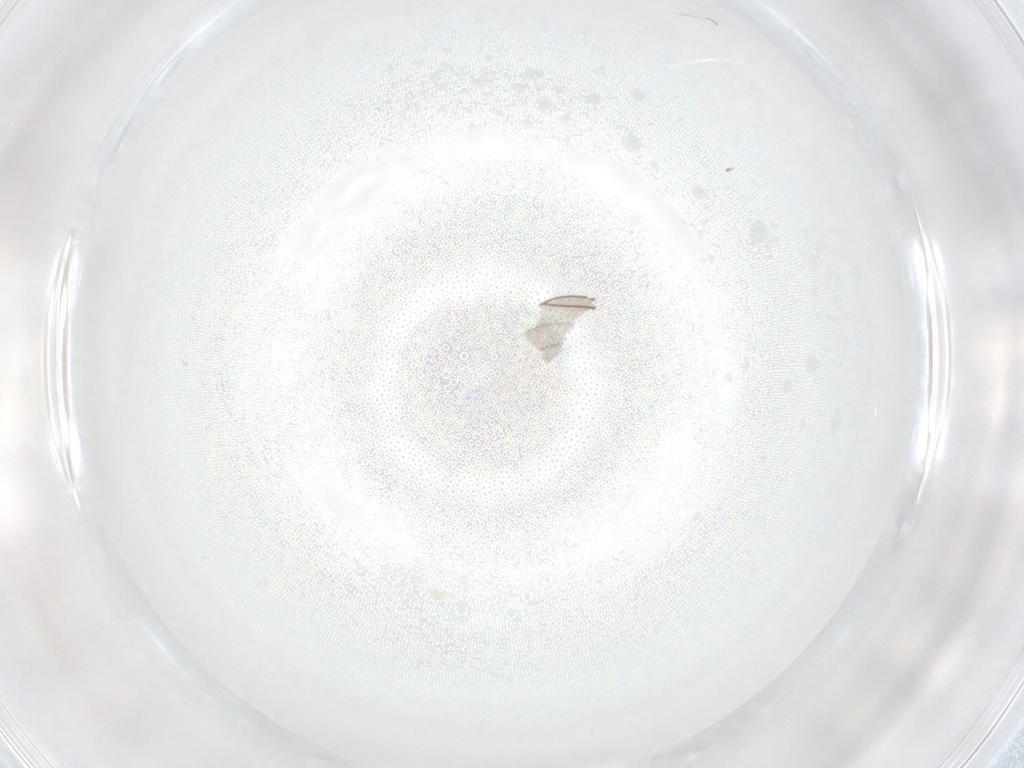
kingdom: Animalia
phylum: Arthropoda
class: Insecta
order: Diptera
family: Cecidomyiidae
